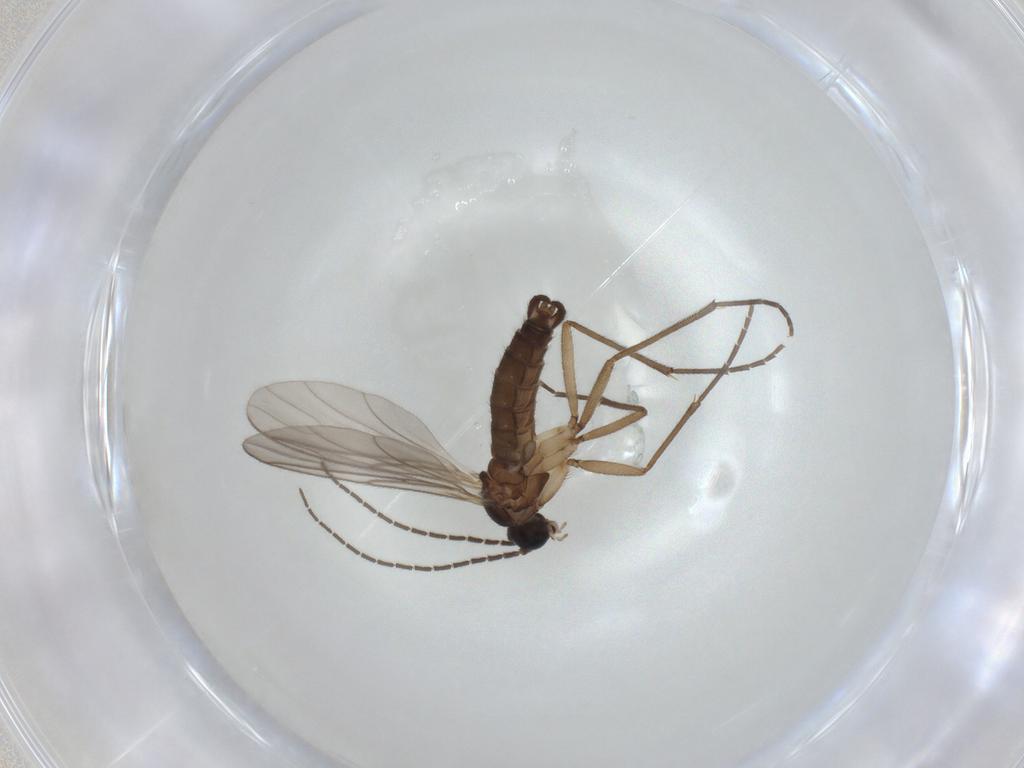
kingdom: Animalia
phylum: Arthropoda
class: Insecta
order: Diptera
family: Sciaridae
